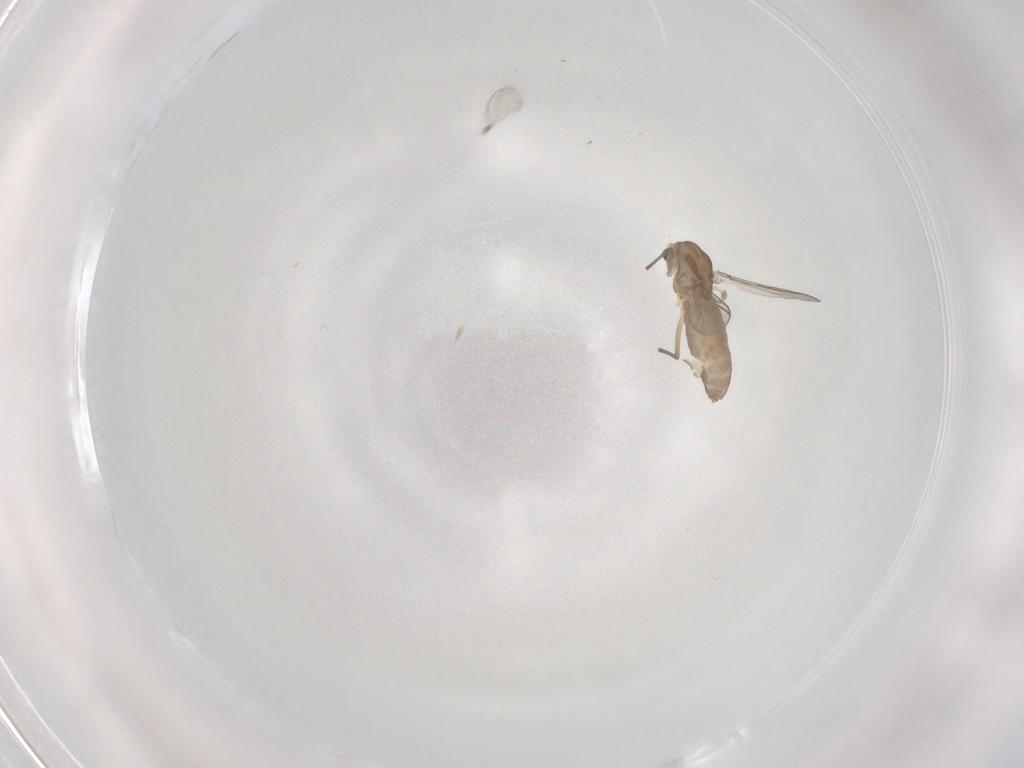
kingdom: Animalia
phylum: Arthropoda
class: Insecta
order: Diptera
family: Chironomidae
